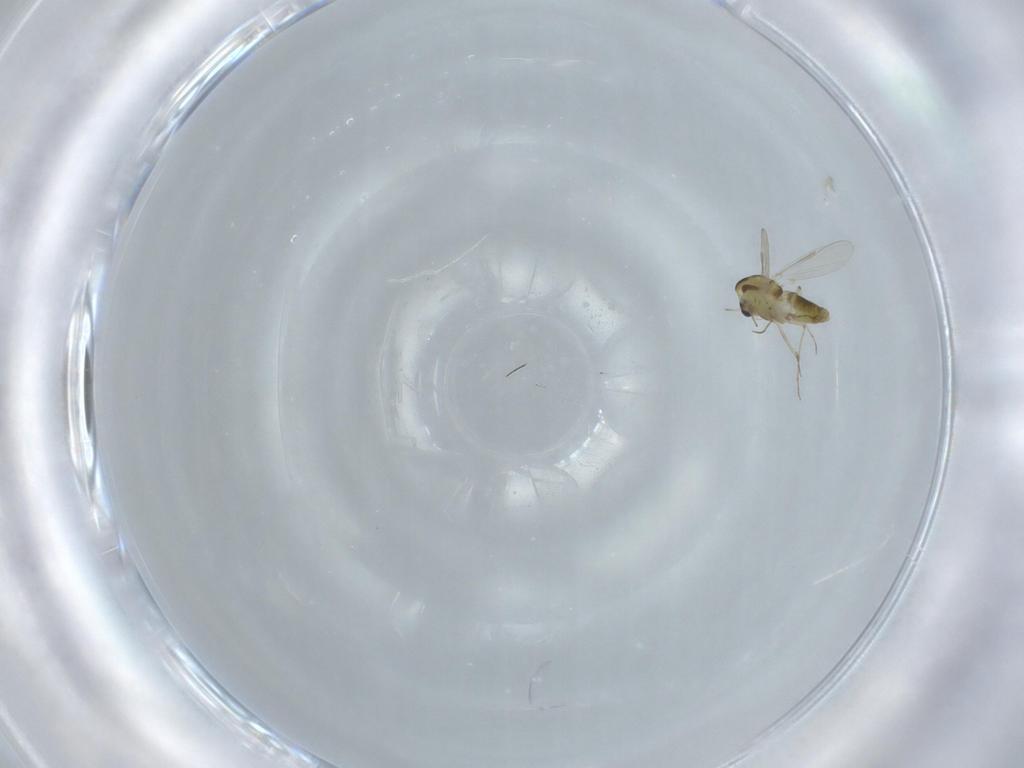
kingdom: Animalia
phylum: Arthropoda
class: Insecta
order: Diptera
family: Chironomidae
